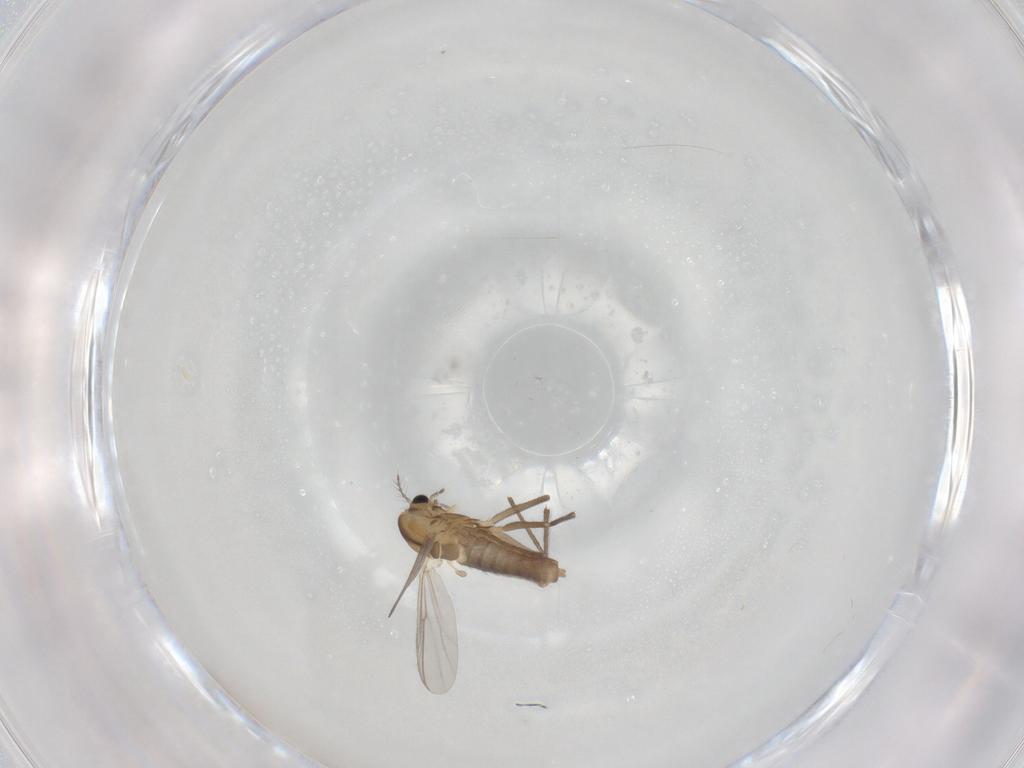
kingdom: Animalia
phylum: Arthropoda
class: Insecta
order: Diptera
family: Chironomidae
